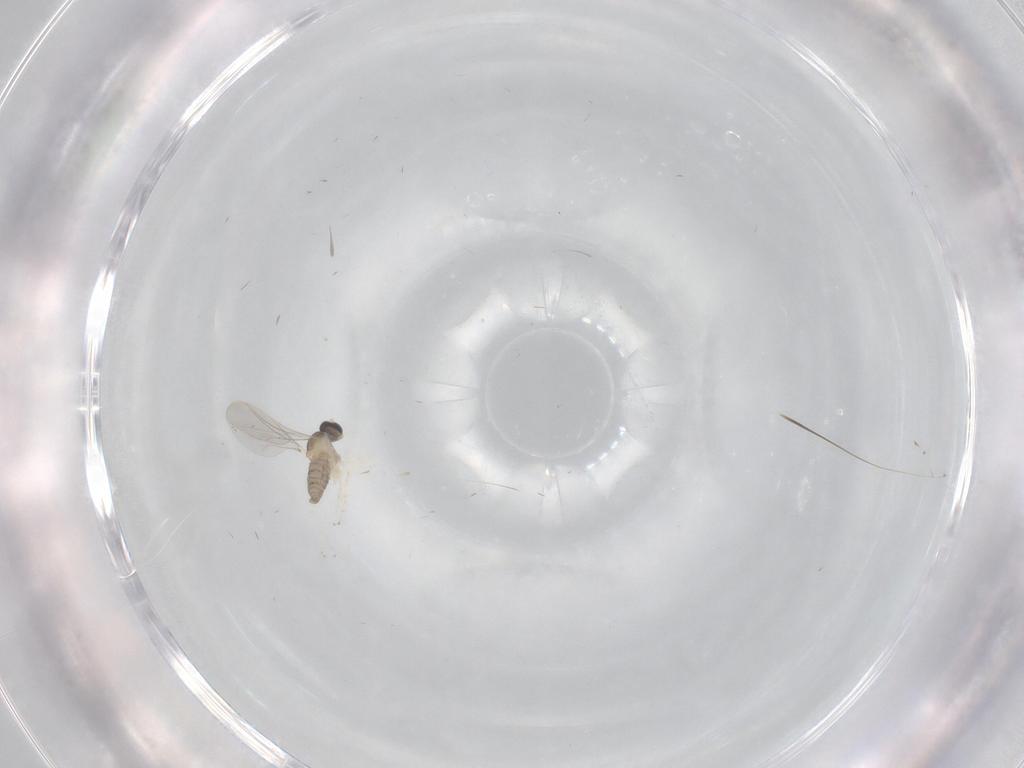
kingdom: Animalia
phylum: Arthropoda
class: Insecta
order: Diptera
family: Cecidomyiidae
